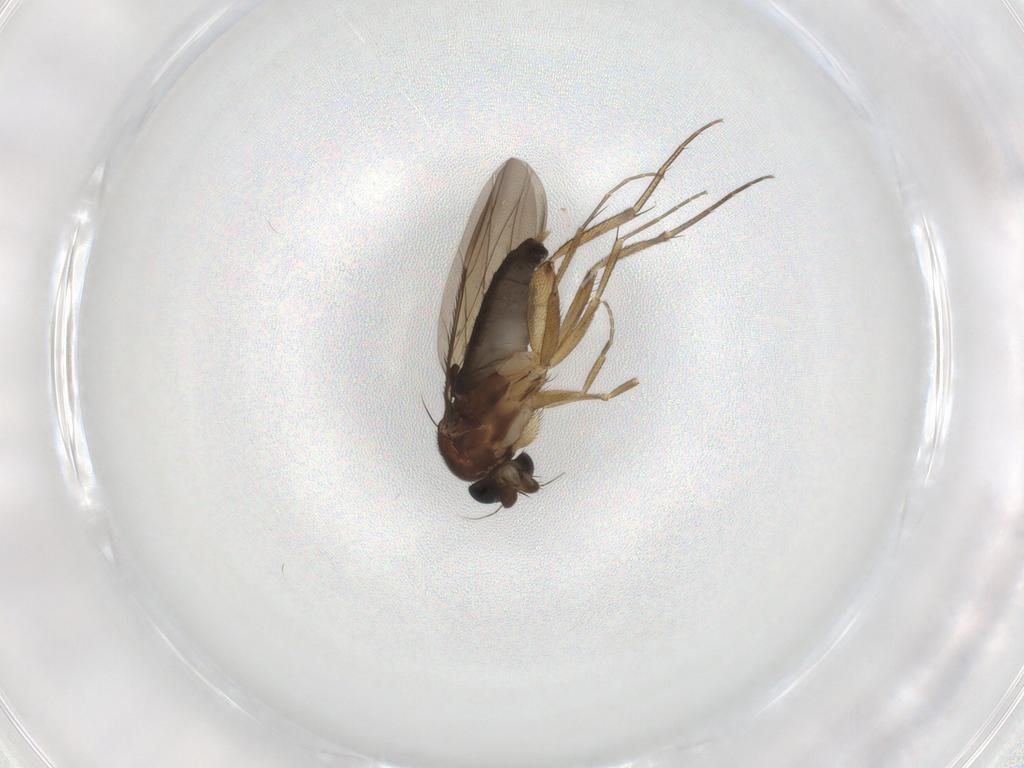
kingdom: Animalia
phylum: Arthropoda
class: Insecta
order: Diptera
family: Phoridae
